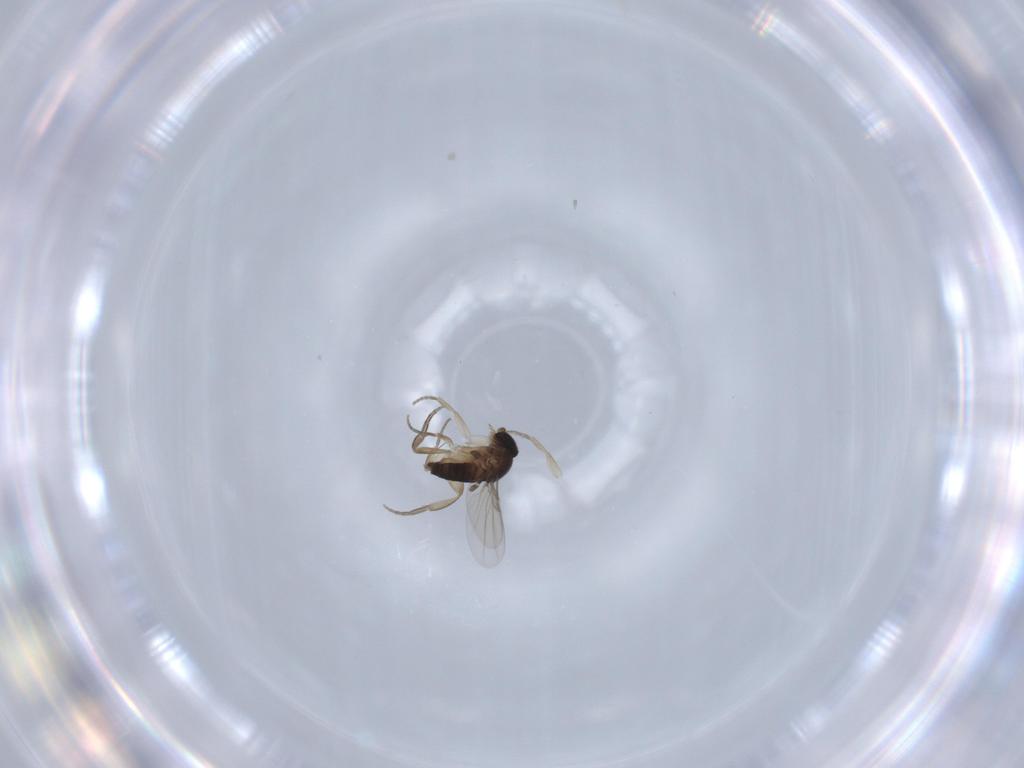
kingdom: Animalia
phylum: Arthropoda
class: Insecta
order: Diptera
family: Phoridae
